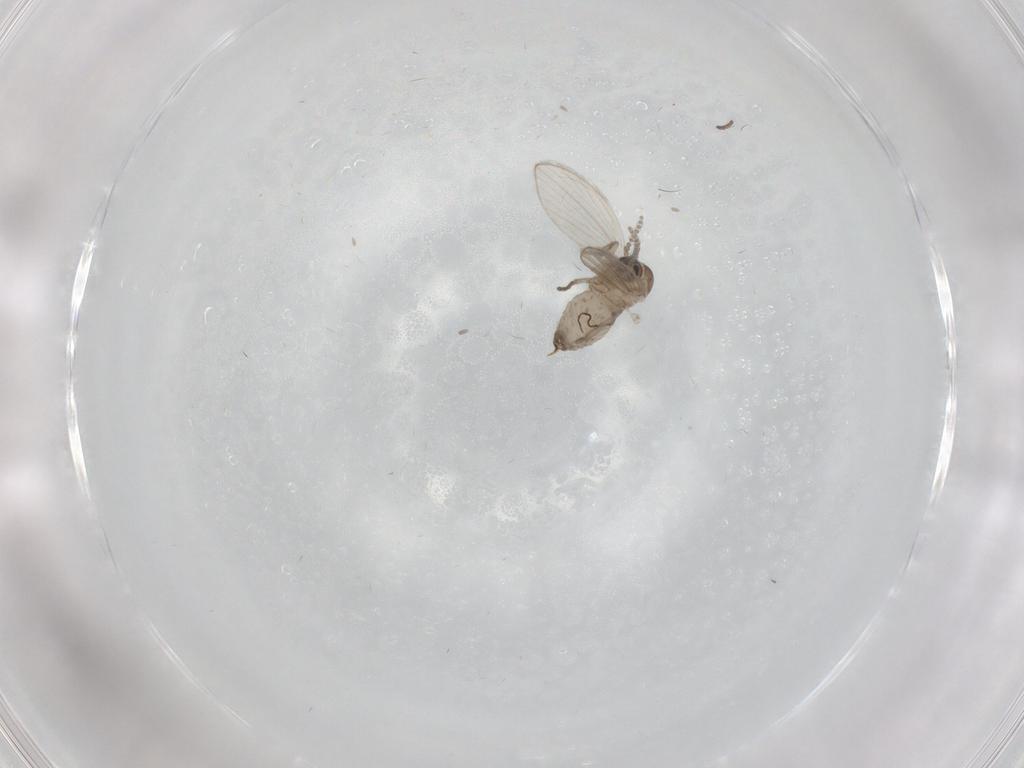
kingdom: Animalia
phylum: Arthropoda
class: Insecta
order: Diptera
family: Psychodidae
